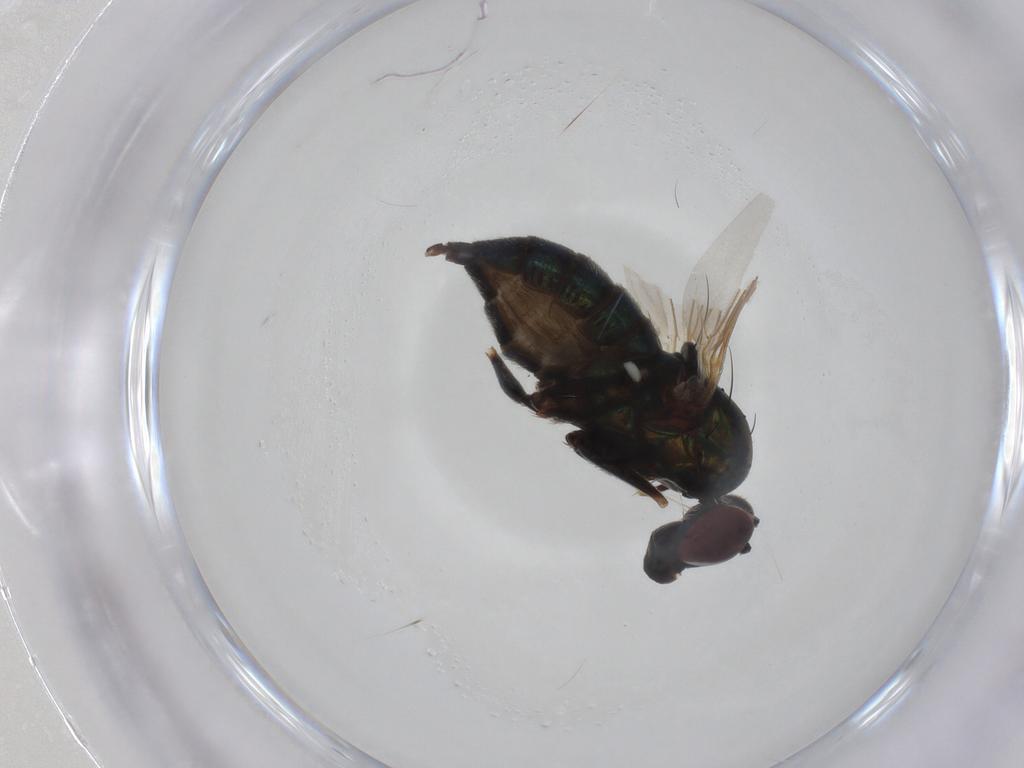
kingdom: Animalia
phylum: Arthropoda
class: Insecta
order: Diptera
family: Dolichopodidae
